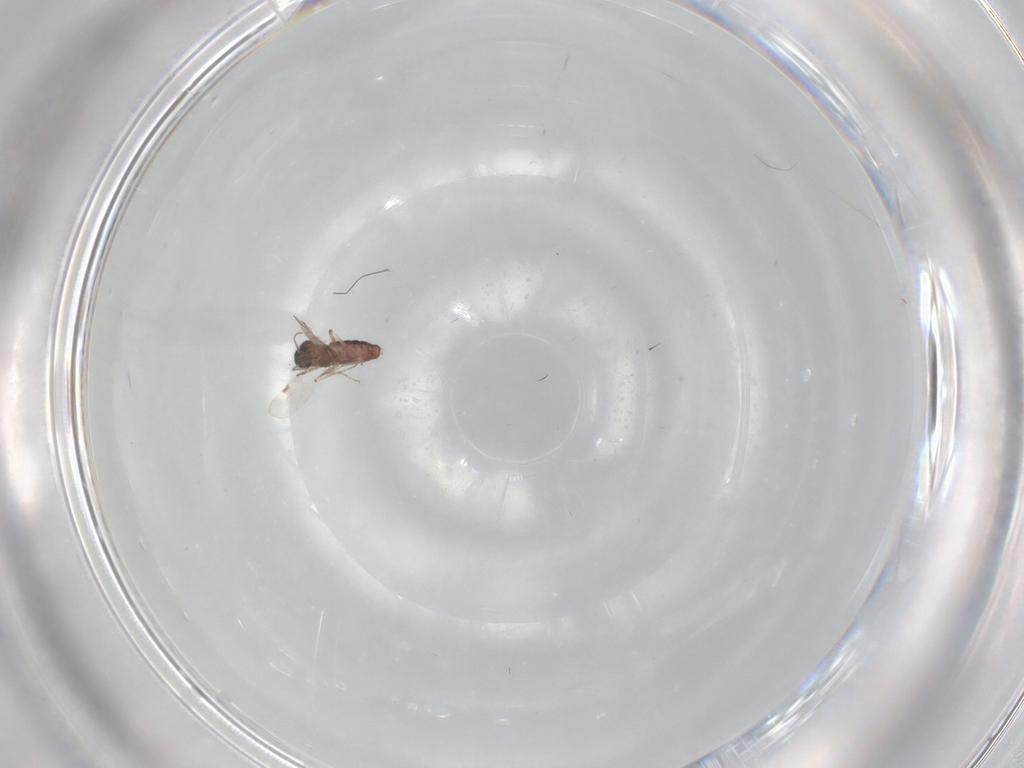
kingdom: Animalia
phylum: Arthropoda
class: Insecta
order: Diptera
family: Psychodidae
